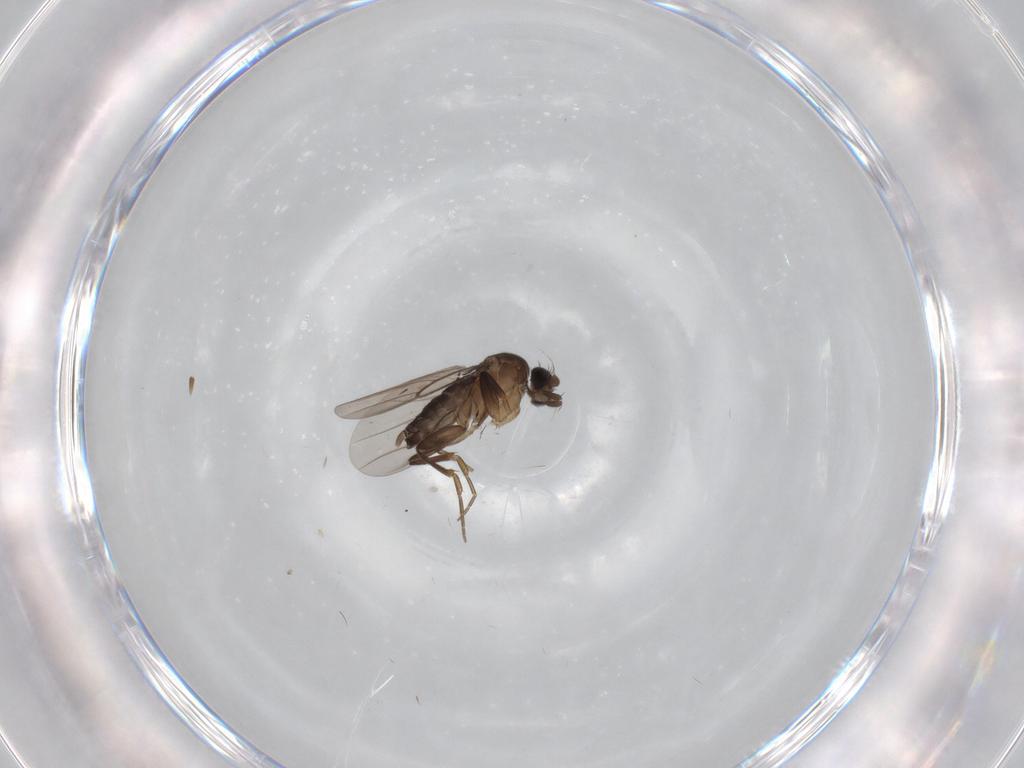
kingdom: Animalia
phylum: Arthropoda
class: Insecta
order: Diptera
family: Phoridae
